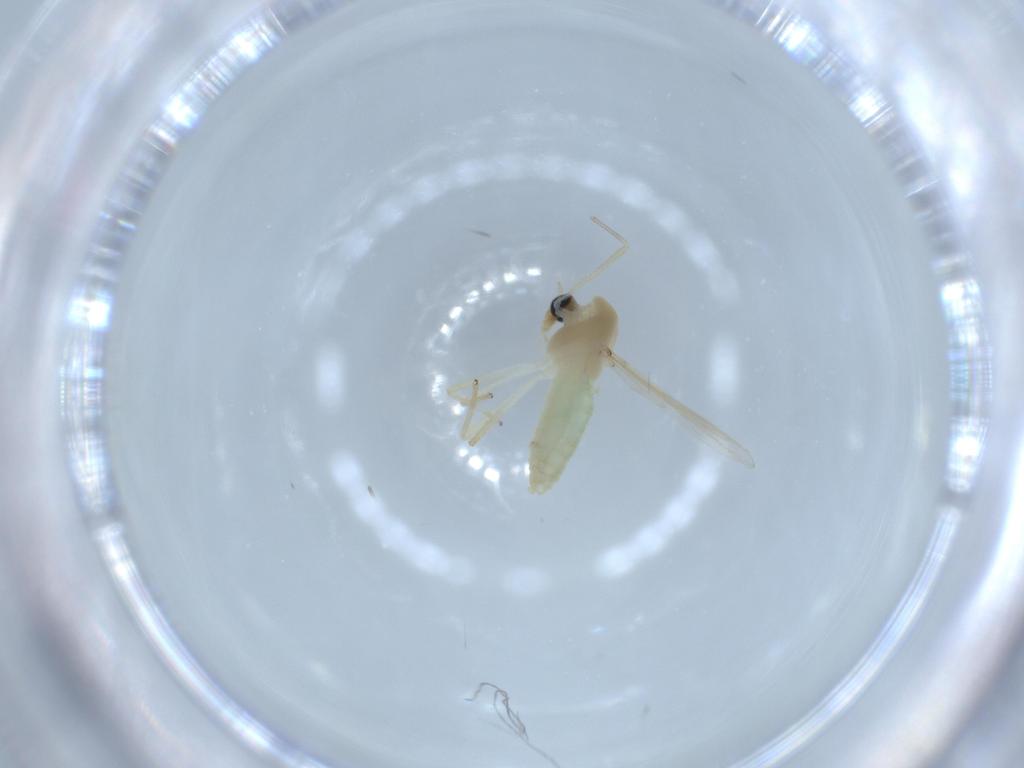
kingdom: Animalia
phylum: Arthropoda
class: Insecta
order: Diptera
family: Chironomidae
